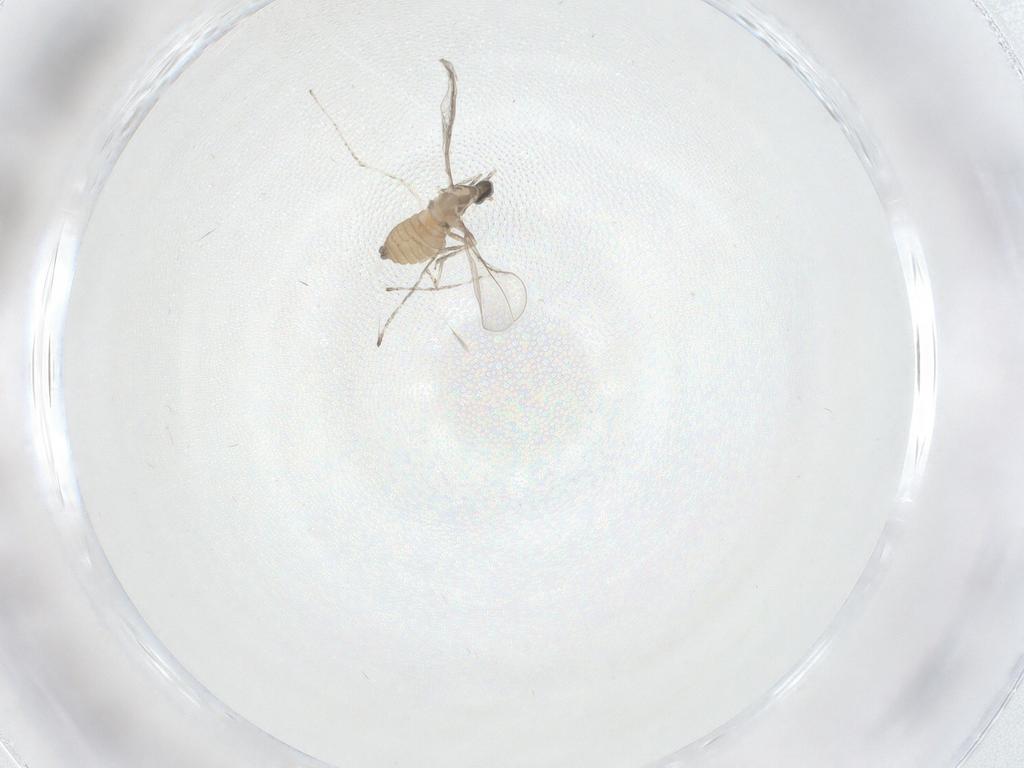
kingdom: Animalia
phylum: Arthropoda
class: Insecta
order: Diptera
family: Cecidomyiidae
